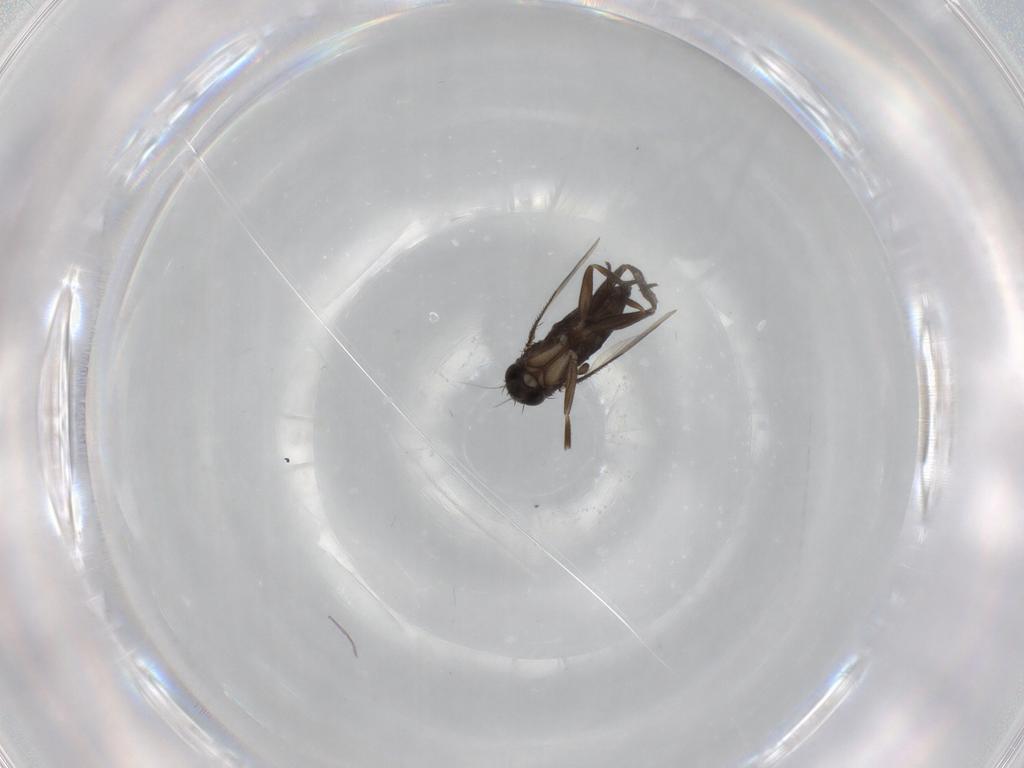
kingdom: Animalia
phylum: Arthropoda
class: Insecta
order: Diptera
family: Phoridae
